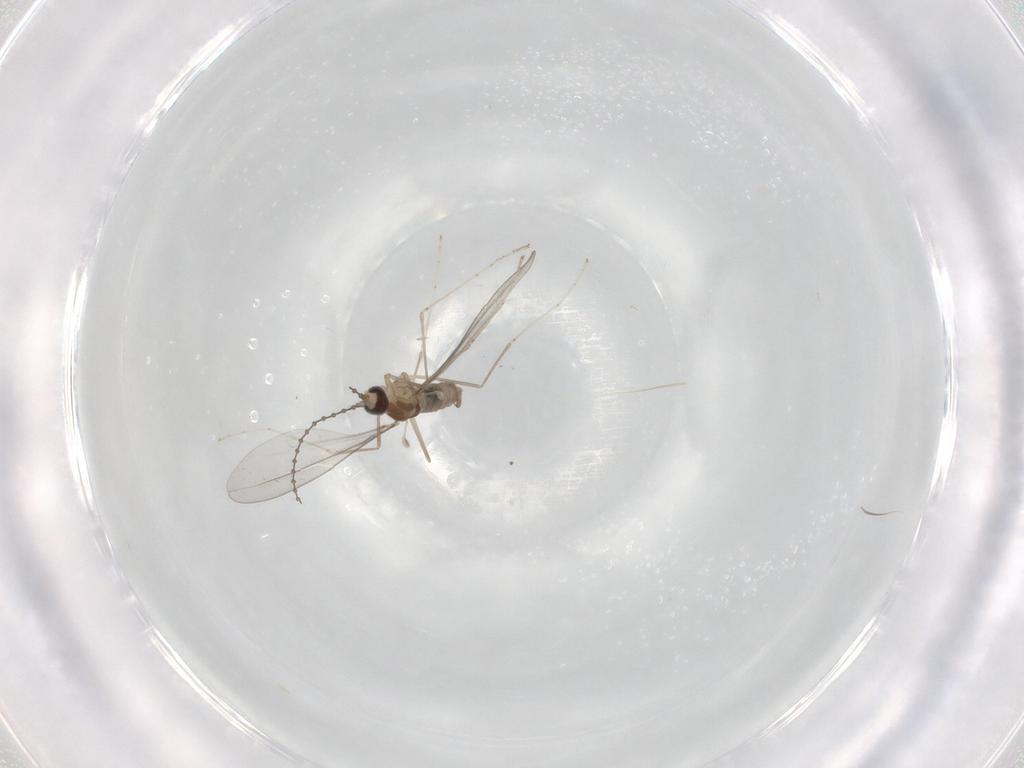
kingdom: Animalia
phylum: Arthropoda
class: Insecta
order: Diptera
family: Cecidomyiidae
